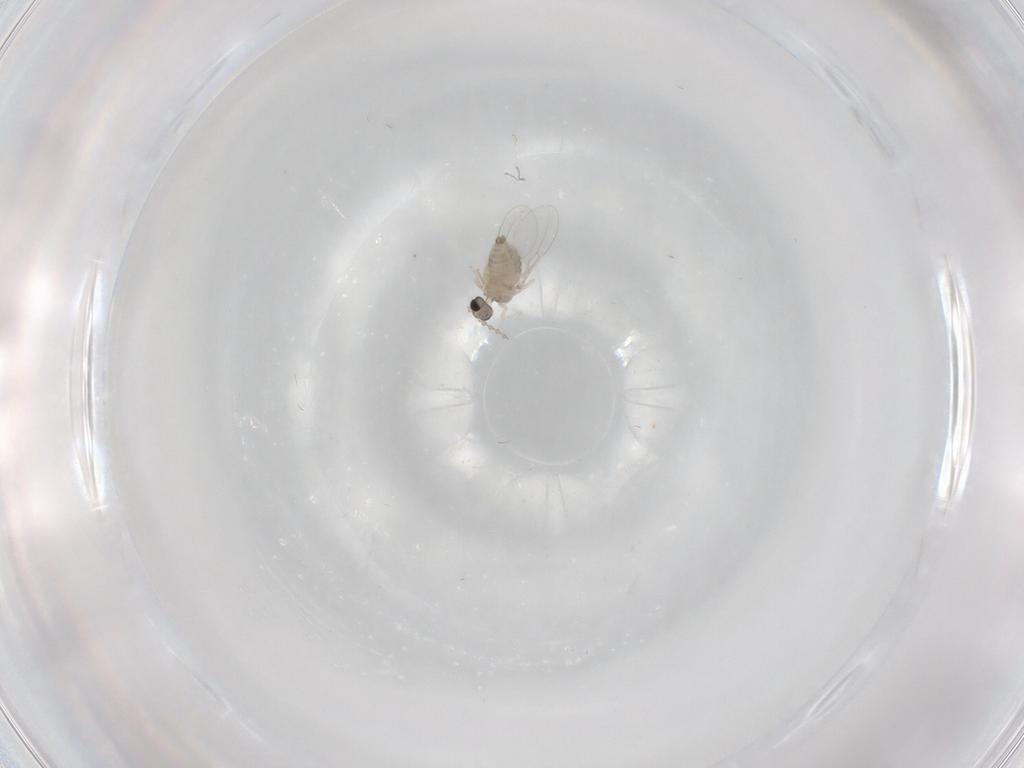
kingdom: Animalia
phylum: Arthropoda
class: Insecta
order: Diptera
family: Cecidomyiidae
